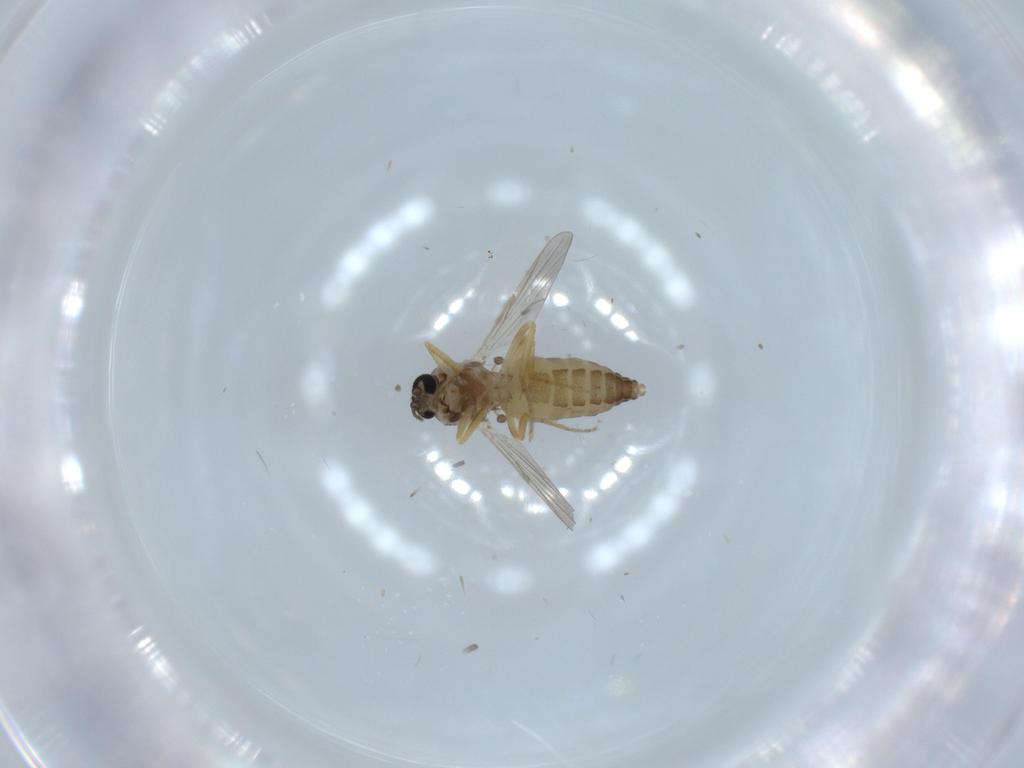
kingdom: Animalia
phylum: Arthropoda
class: Insecta
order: Diptera
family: Ceratopogonidae
